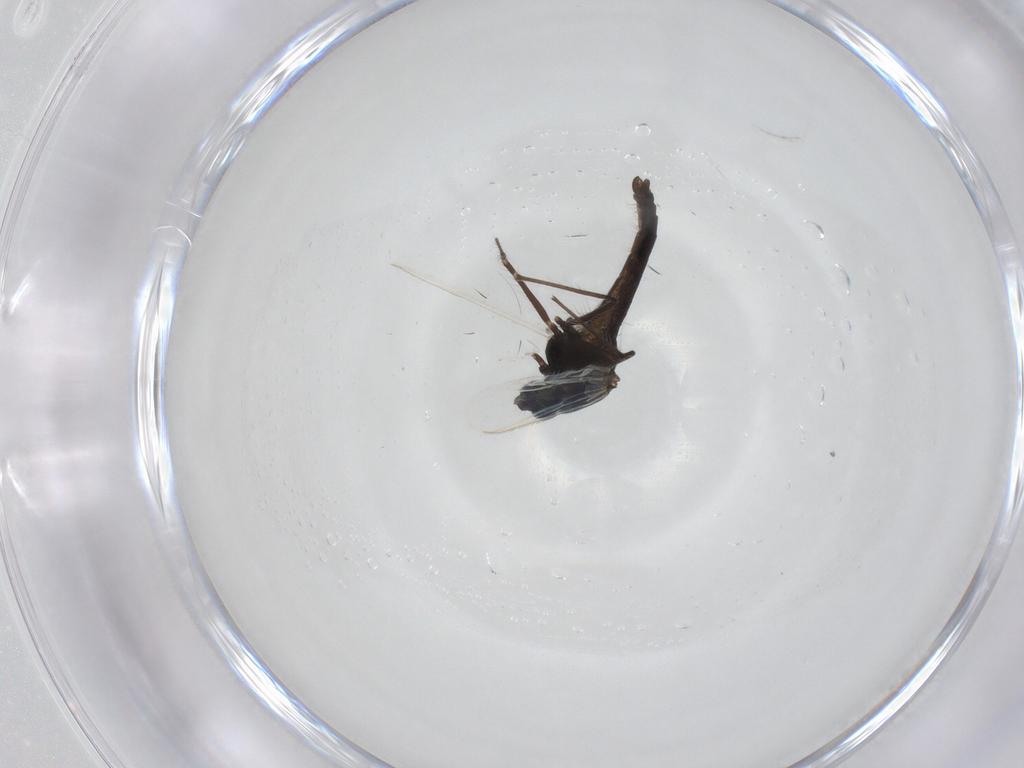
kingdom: Animalia
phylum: Arthropoda
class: Insecta
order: Diptera
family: Chironomidae
